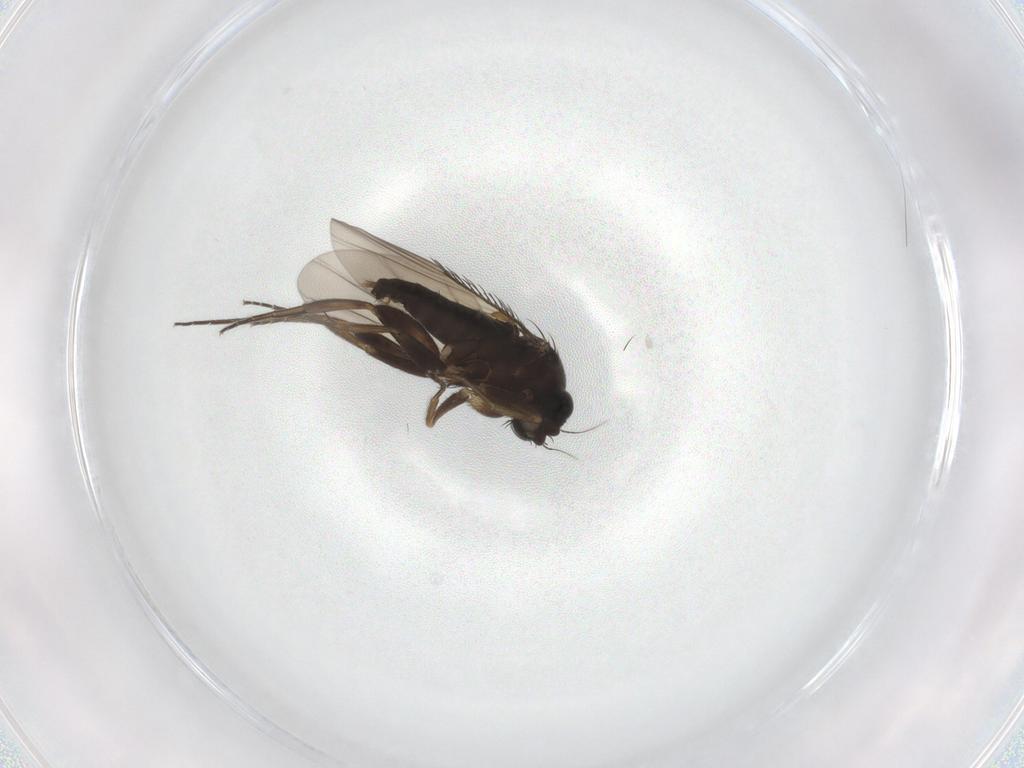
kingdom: Animalia
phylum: Arthropoda
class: Insecta
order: Diptera
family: Phoridae
